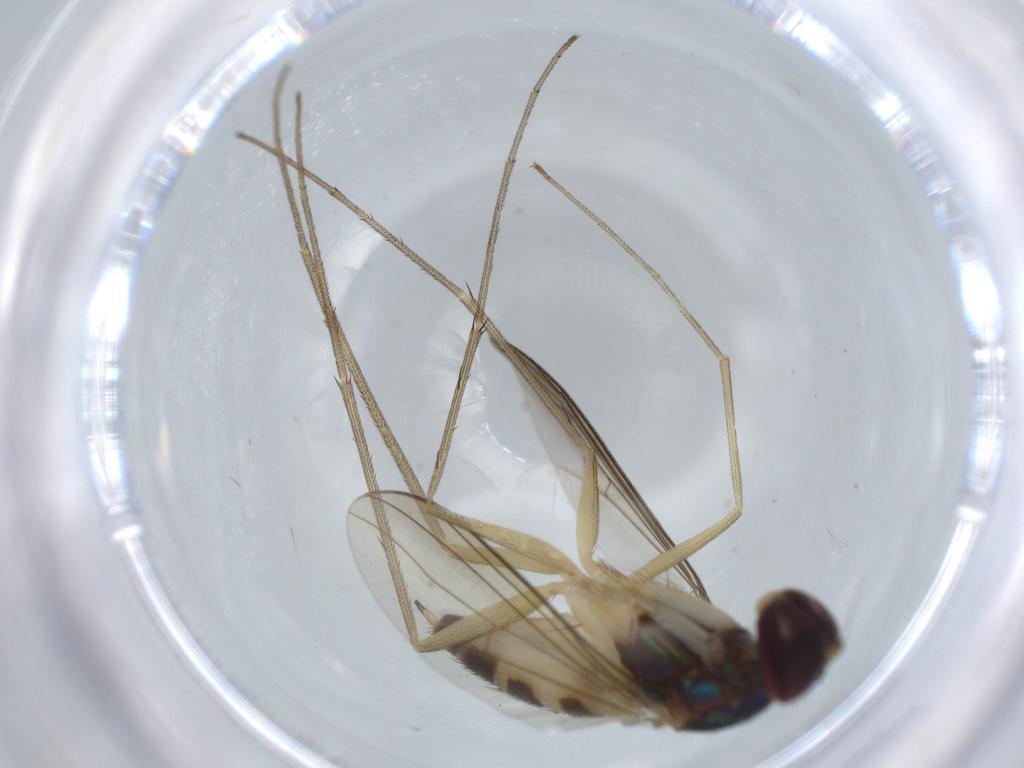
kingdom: Animalia
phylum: Arthropoda
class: Insecta
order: Diptera
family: Dolichopodidae
